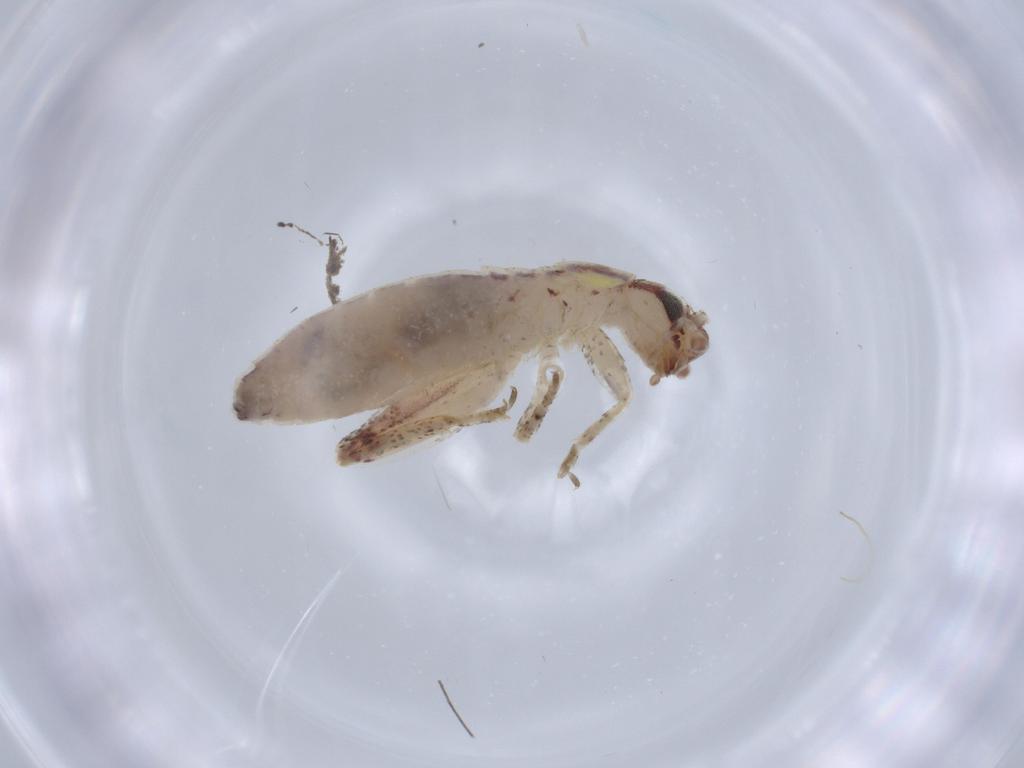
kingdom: Animalia
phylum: Arthropoda
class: Insecta
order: Orthoptera
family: Mogoplistidae
